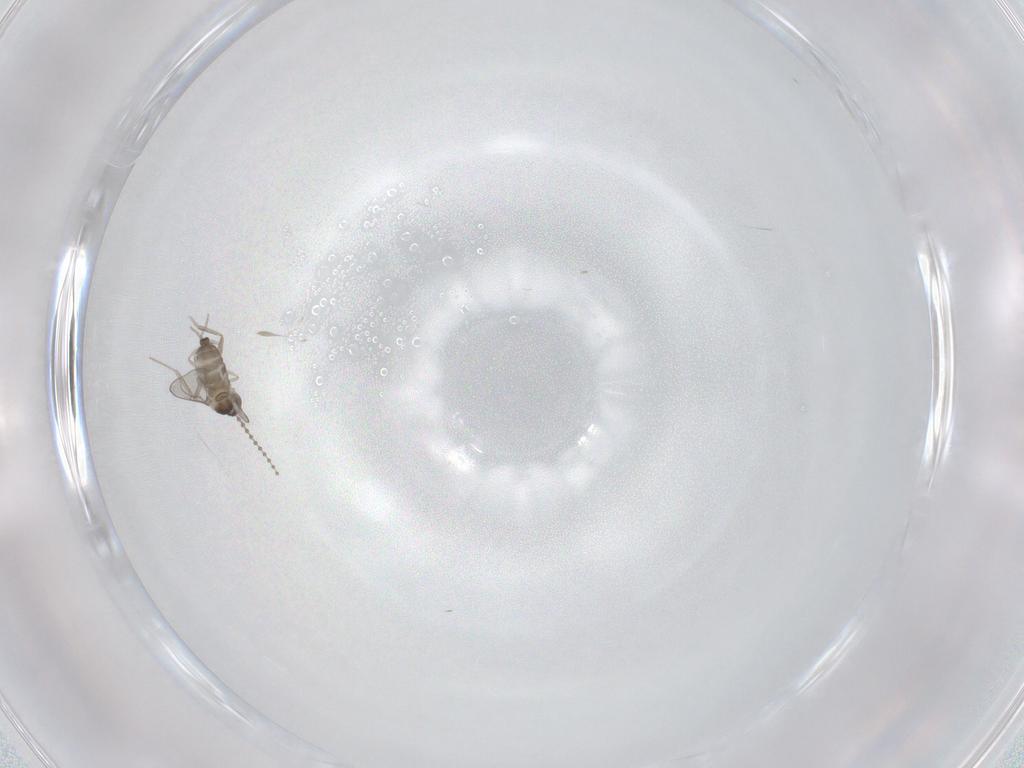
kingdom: Animalia
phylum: Arthropoda
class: Insecta
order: Diptera
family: Cecidomyiidae
